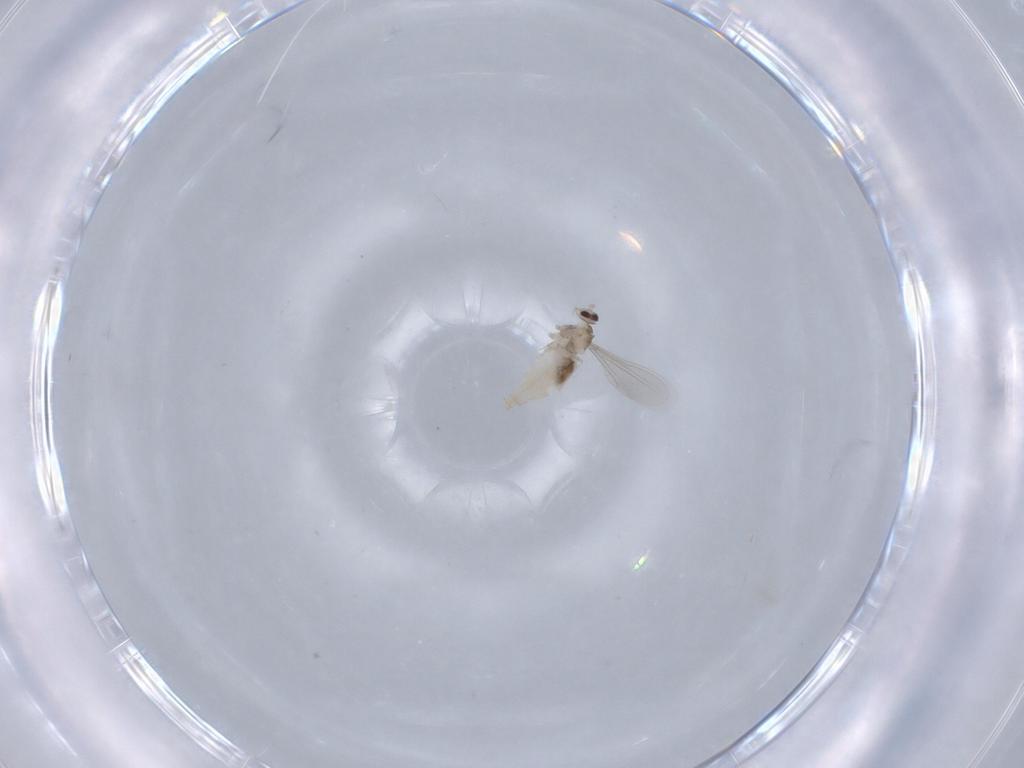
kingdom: Animalia
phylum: Arthropoda
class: Insecta
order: Diptera
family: Cecidomyiidae
